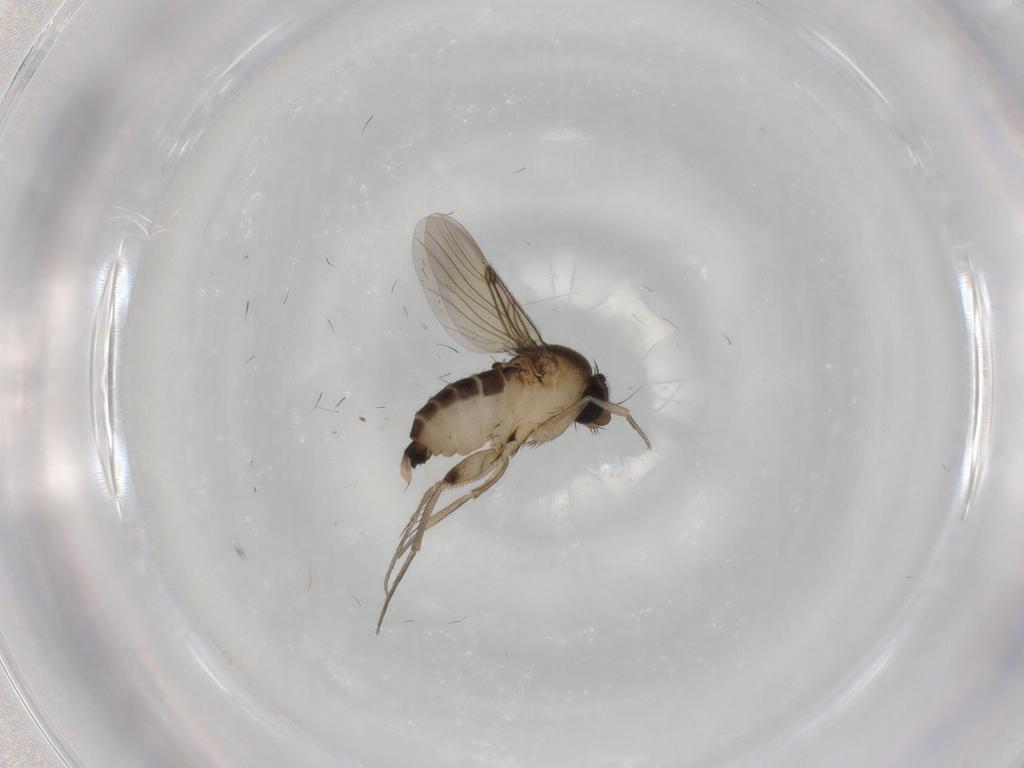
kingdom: Animalia
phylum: Arthropoda
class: Insecta
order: Diptera
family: Phoridae
